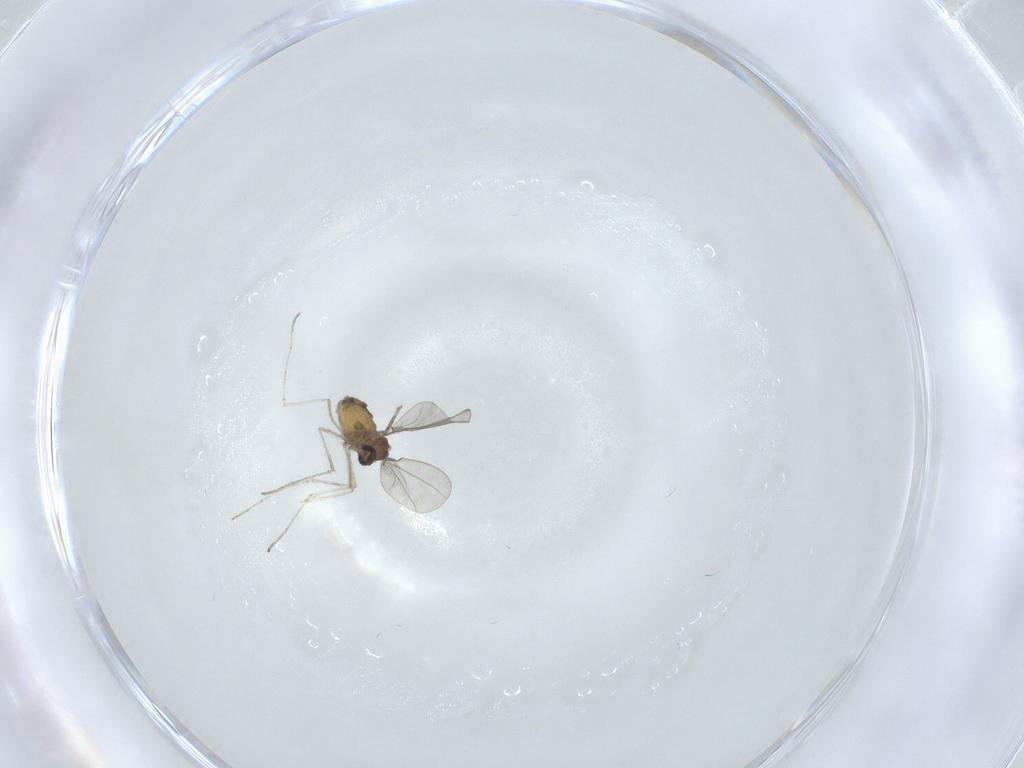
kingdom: Animalia
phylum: Arthropoda
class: Insecta
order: Diptera
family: Cecidomyiidae
